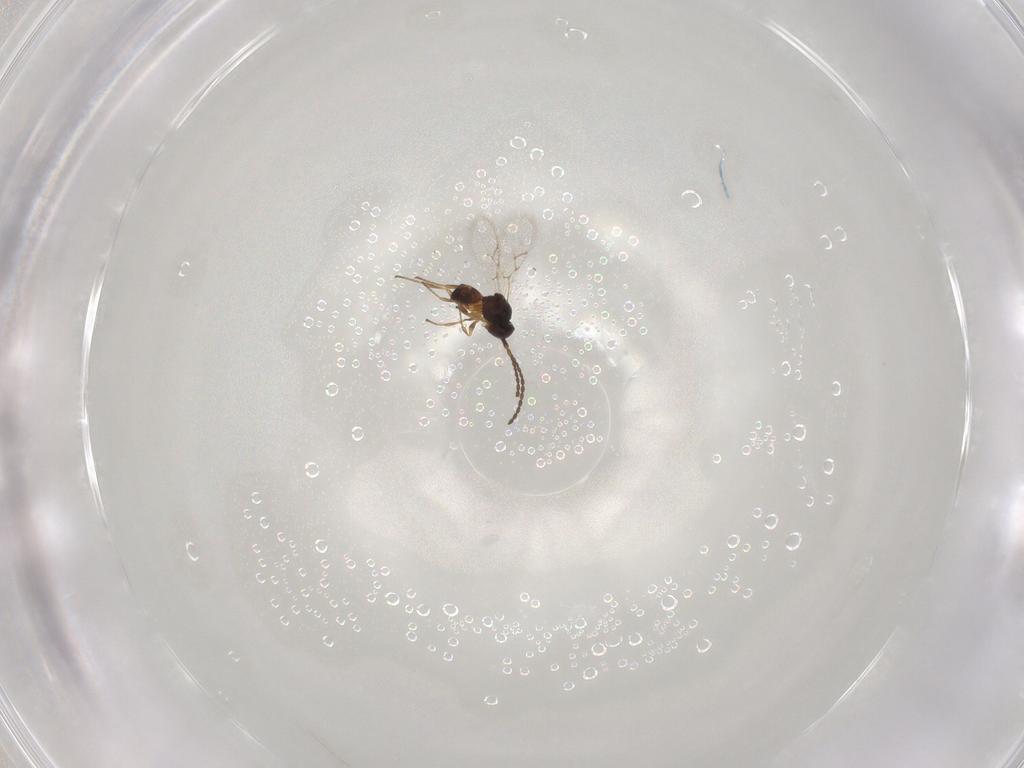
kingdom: Animalia
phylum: Arthropoda
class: Insecta
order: Hymenoptera
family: Figitidae
